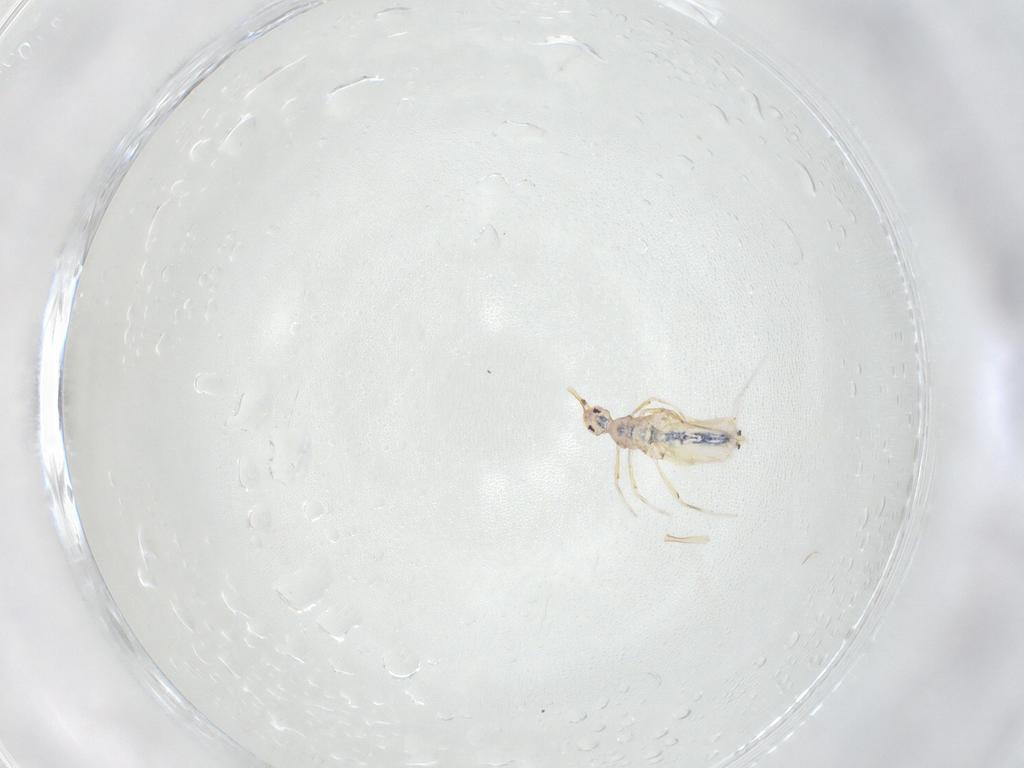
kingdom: Animalia
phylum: Arthropoda
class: Collembola
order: Entomobryomorpha
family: Entomobryidae
